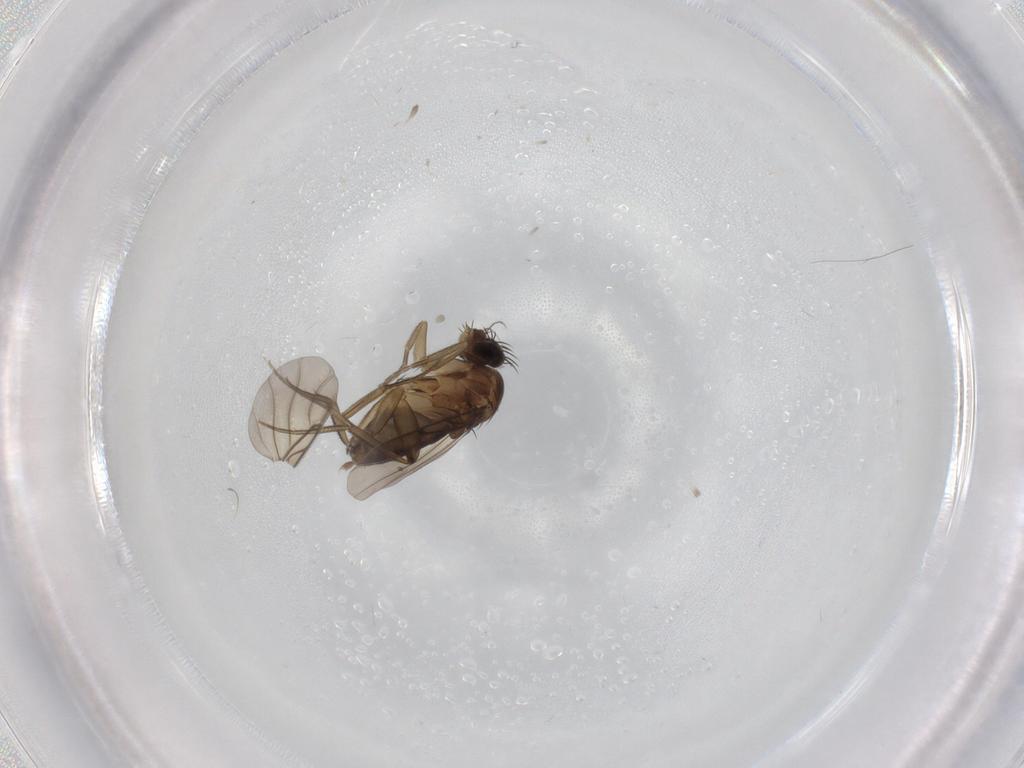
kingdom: Animalia
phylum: Arthropoda
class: Insecta
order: Diptera
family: Phoridae
